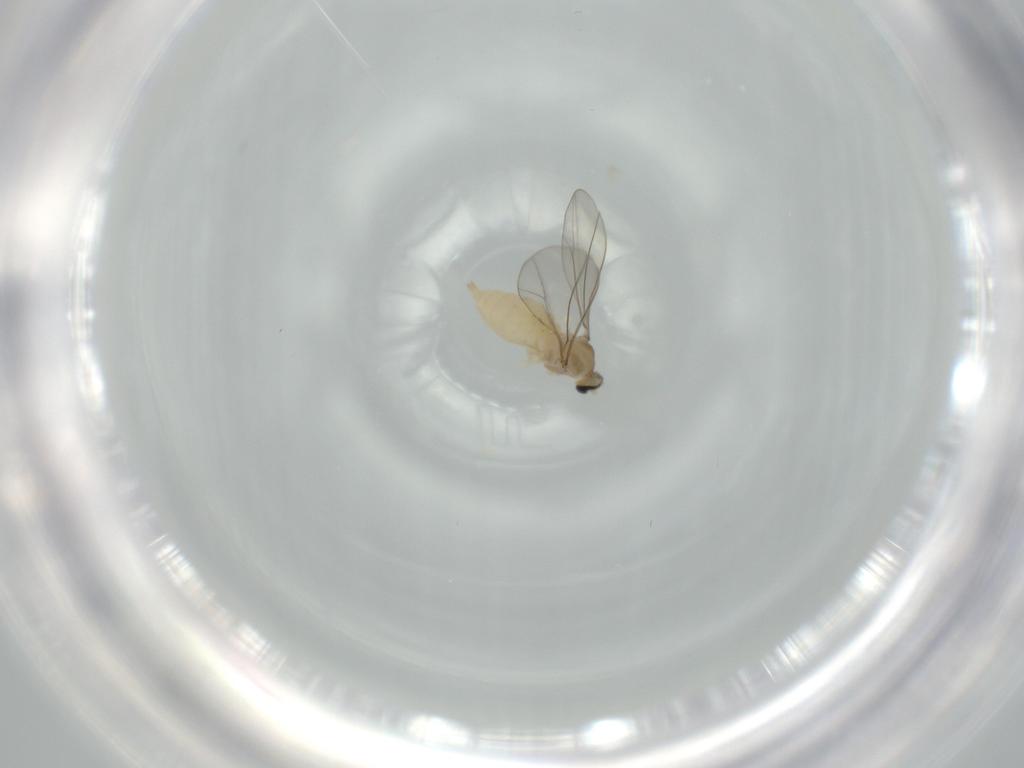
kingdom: Animalia
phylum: Arthropoda
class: Insecta
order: Diptera
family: Cecidomyiidae
